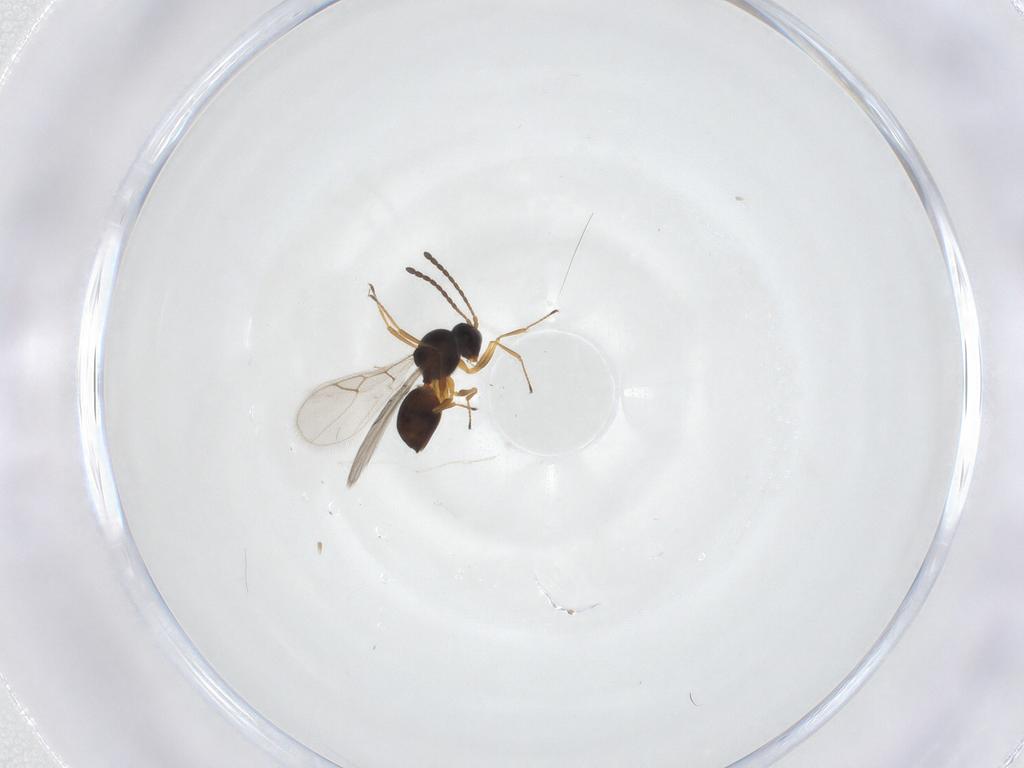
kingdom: Animalia
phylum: Arthropoda
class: Insecta
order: Hymenoptera
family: Figitidae
